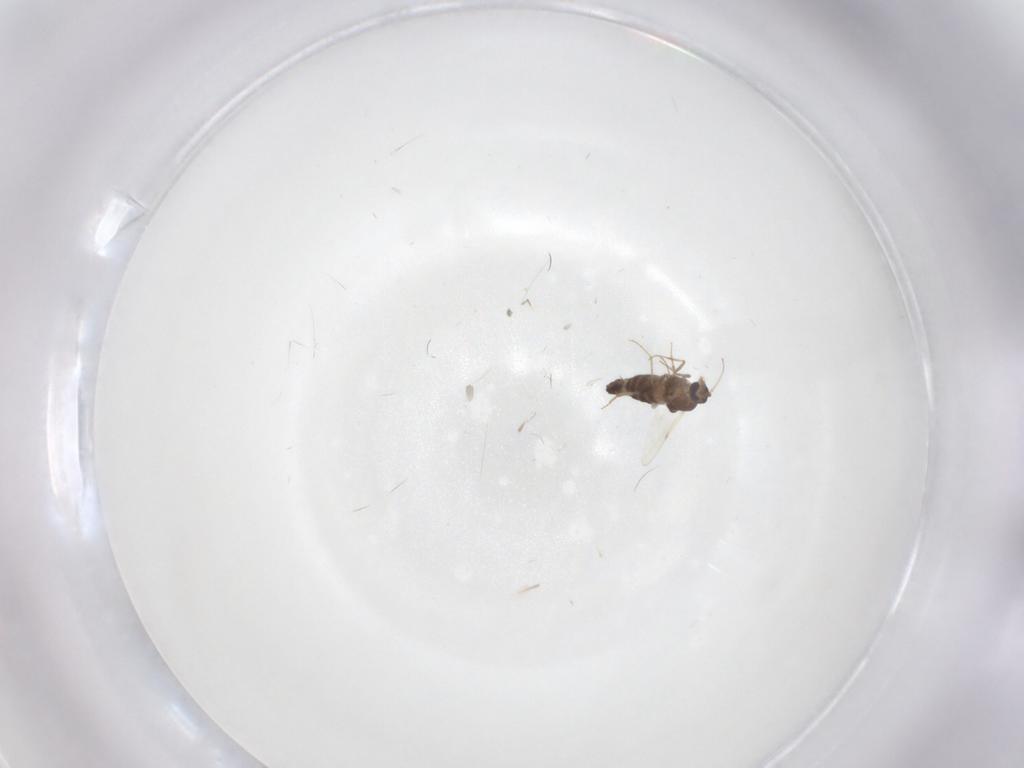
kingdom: Animalia
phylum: Arthropoda
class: Insecta
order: Diptera
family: Ceratopogonidae
